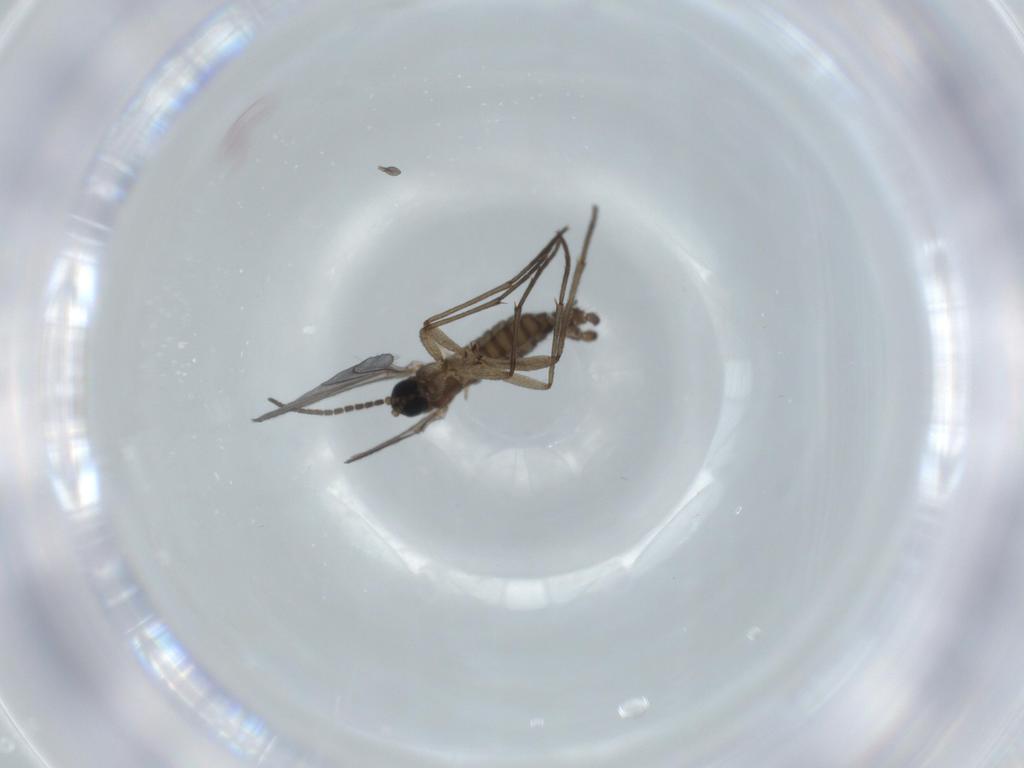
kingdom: Animalia
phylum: Arthropoda
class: Insecta
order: Diptera
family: Sciaridae
